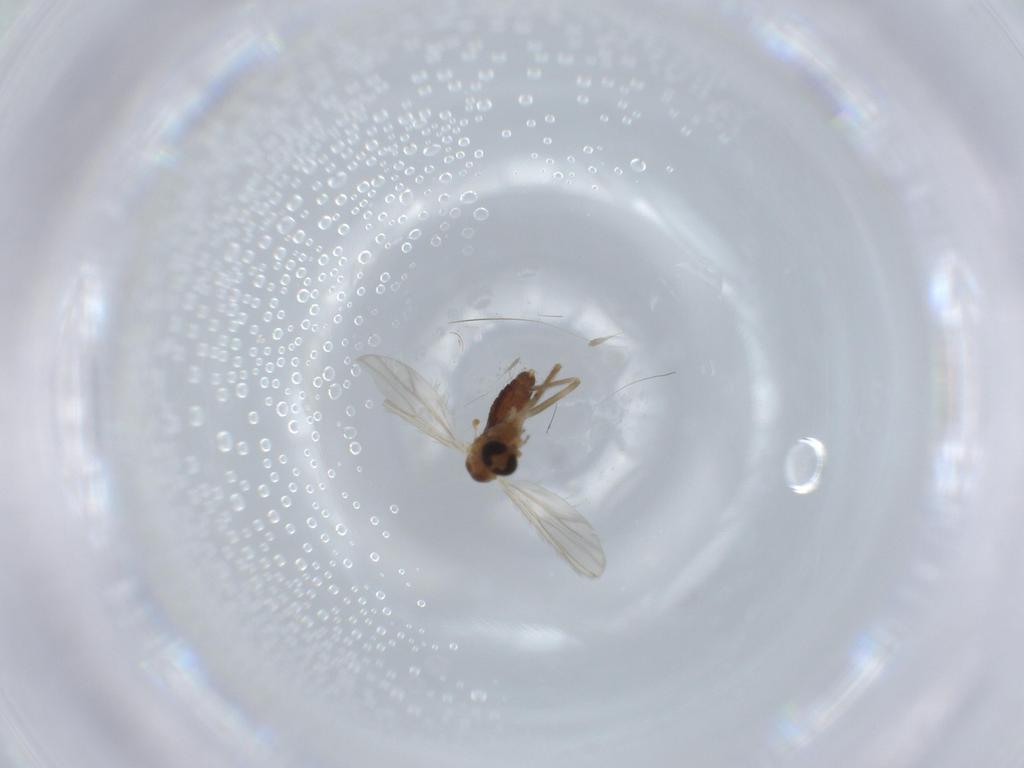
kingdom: Animalia
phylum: Arthropoda
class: Insecta
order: Diptera
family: Chironomidae
